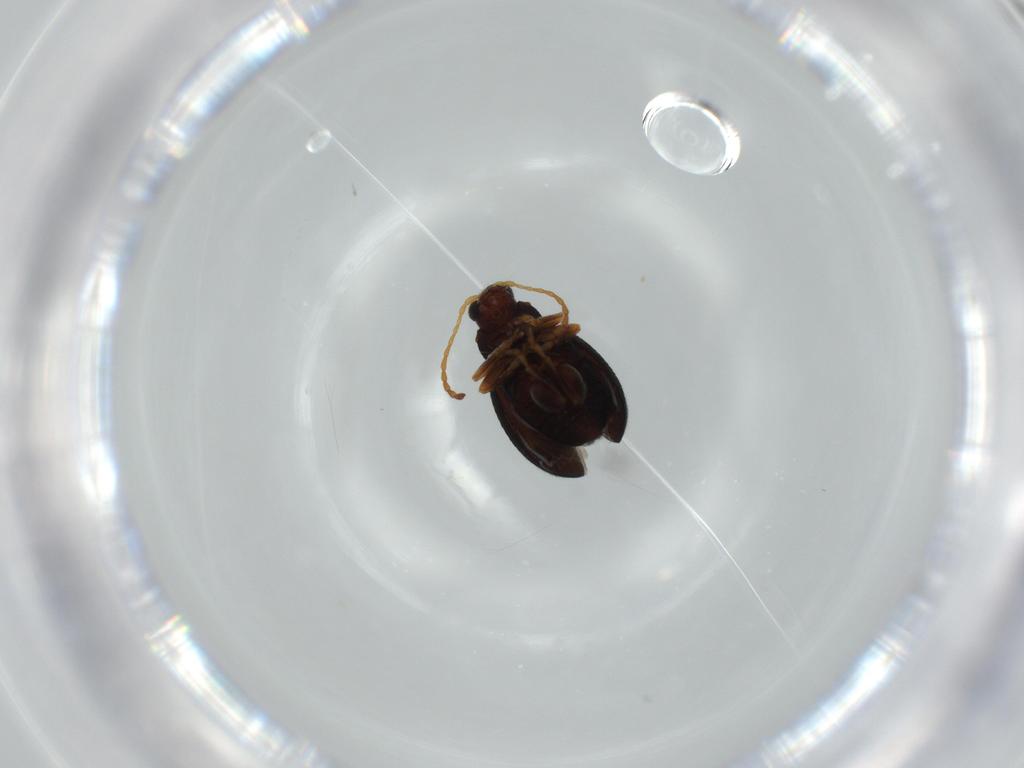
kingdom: Animalia
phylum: Arthropoda
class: Insecta
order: Coleoptera
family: Chrysomelidae
